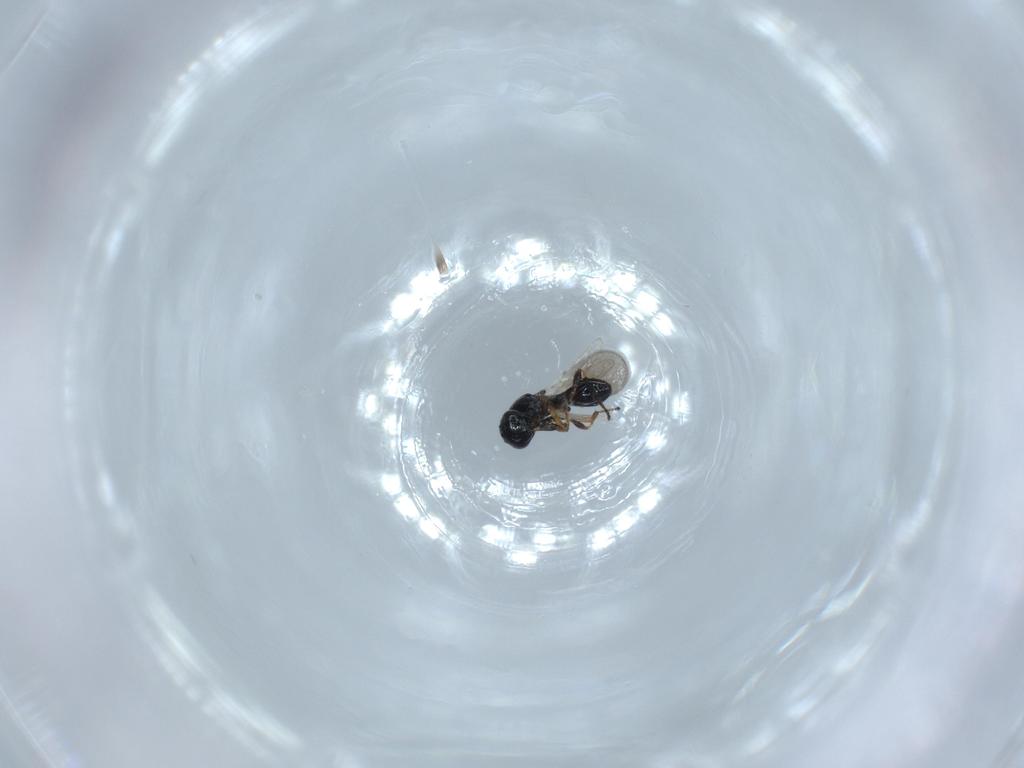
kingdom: Animalia
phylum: Arthropoda
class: Insecta
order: Hymenoptera
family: Platygastridae
